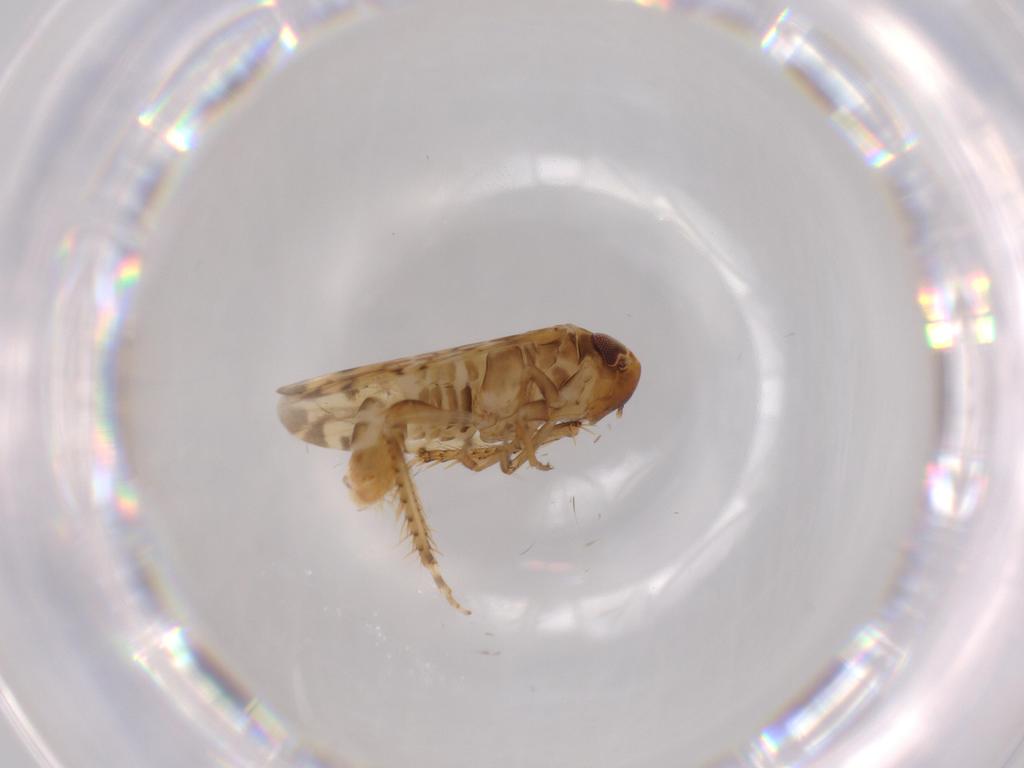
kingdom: Animalia
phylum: Arthropoda
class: Insecta
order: Hemiptera
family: Cicadellidae
